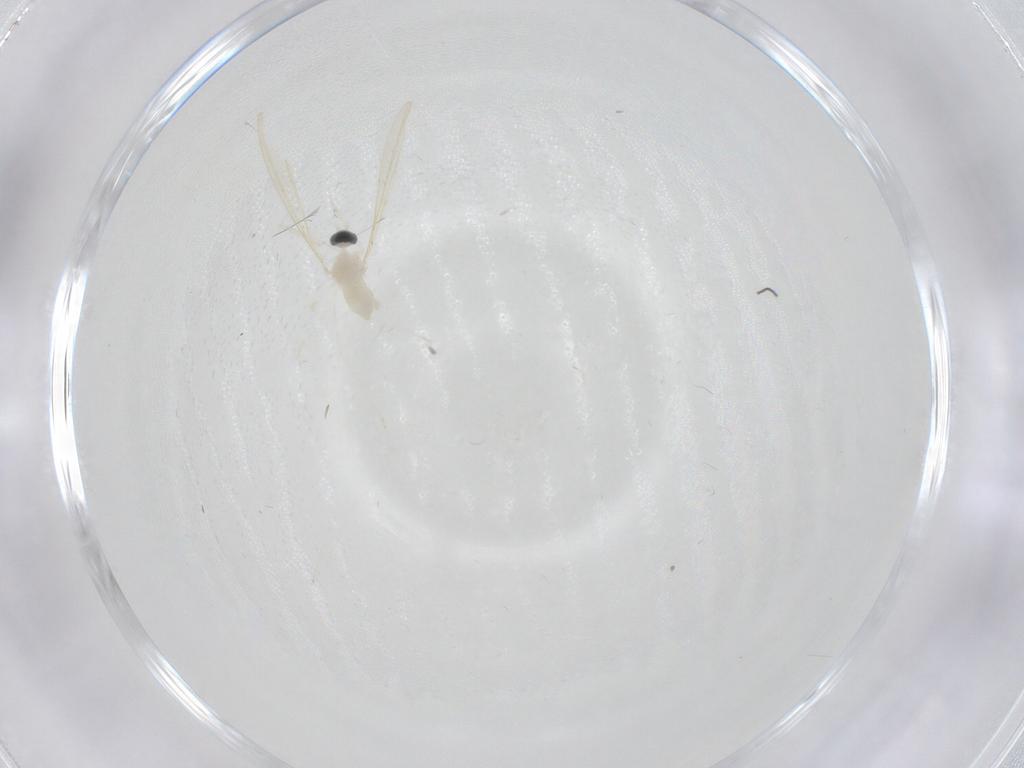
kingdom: Animalia
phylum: Arthropoda
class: Insecta
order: Diptera
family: Cecidomyiidae
